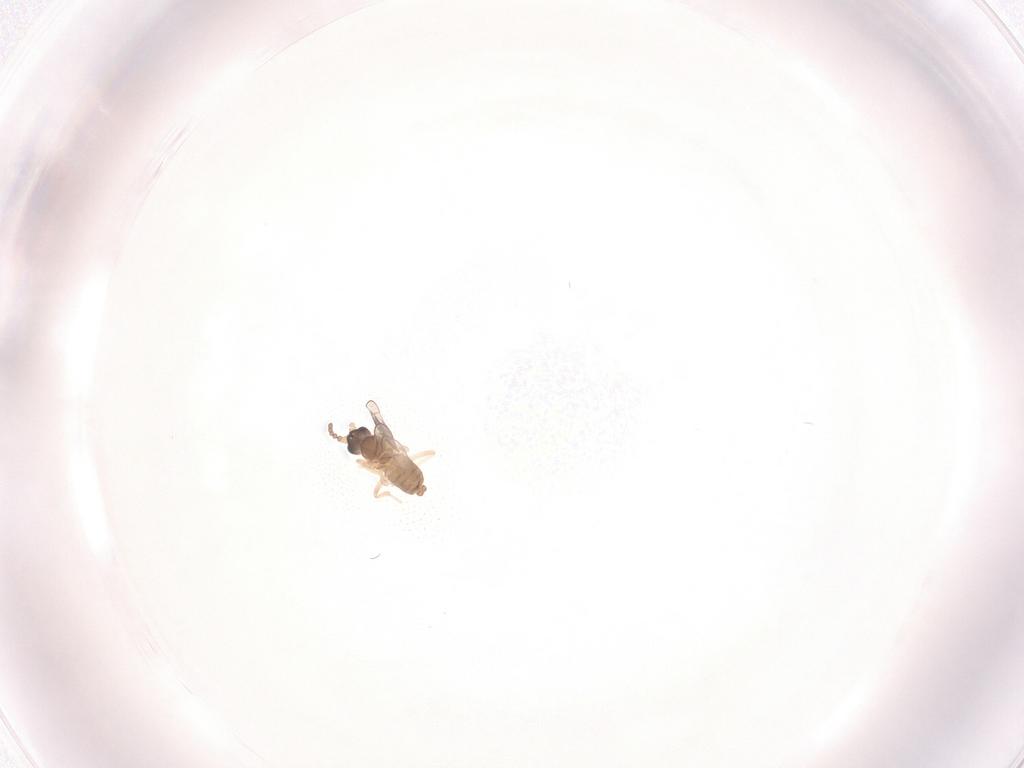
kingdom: Animalia
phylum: Arthropoda
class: Insecta
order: Diptera
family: Cecidomyiidae
